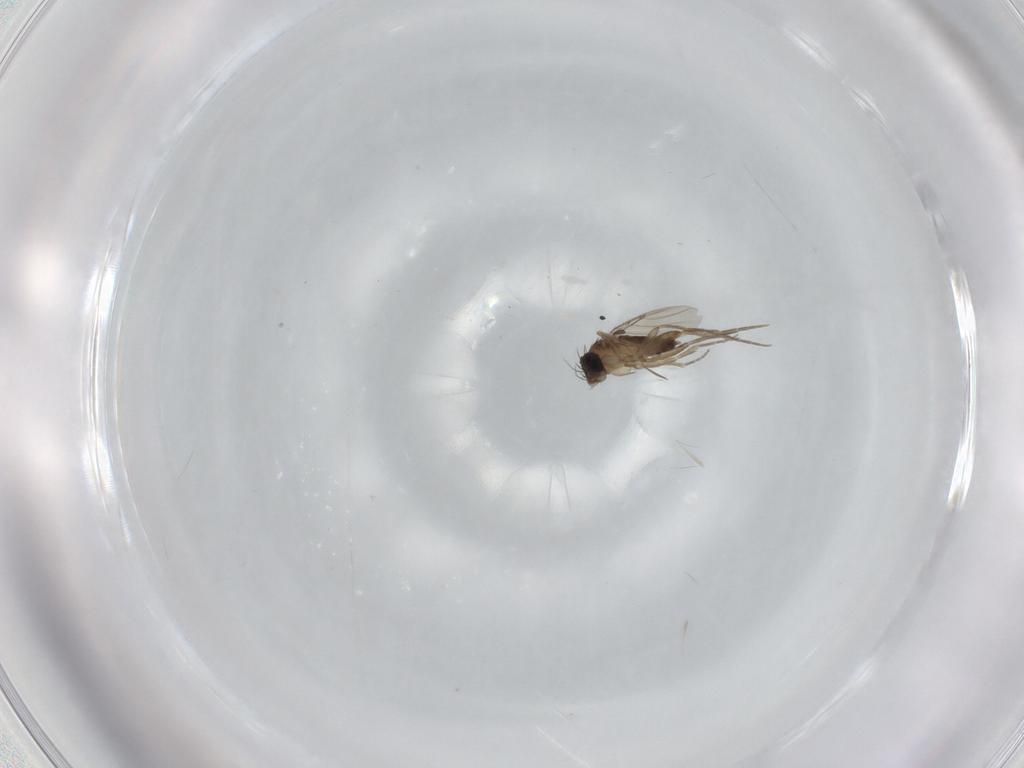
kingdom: Animalia
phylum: Arthropoda
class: Insecta
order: Diptera
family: Phoridae
